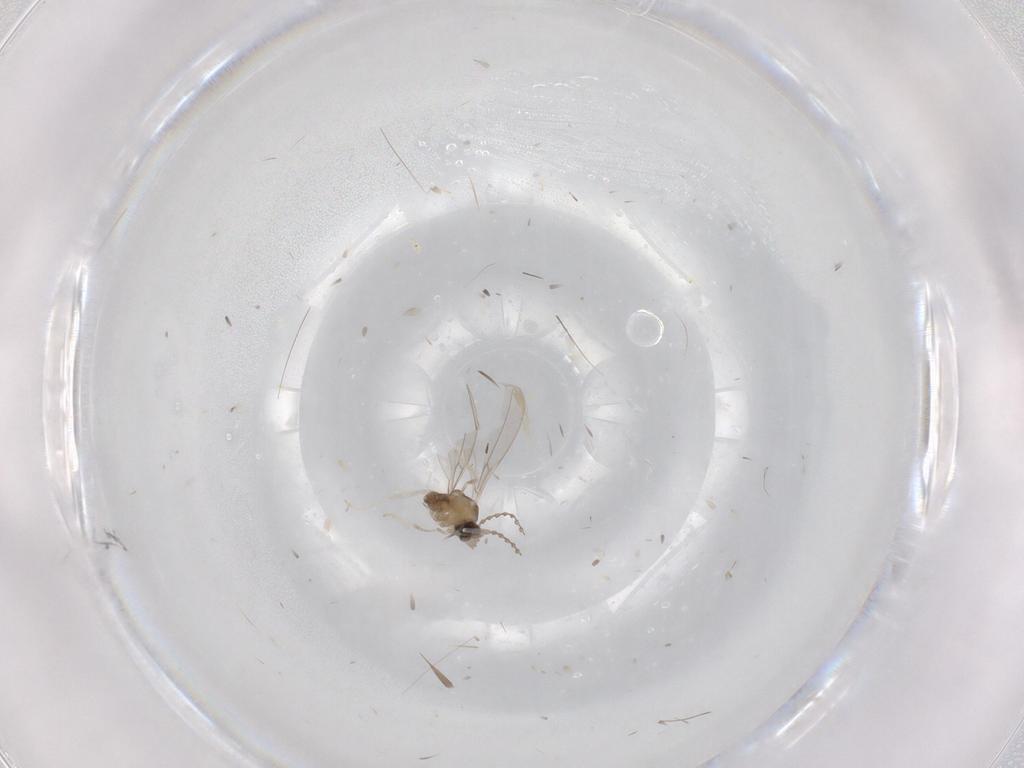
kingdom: Animalia
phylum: Arthropoda
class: Insecta
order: Diptera
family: Cecidomyiidae
